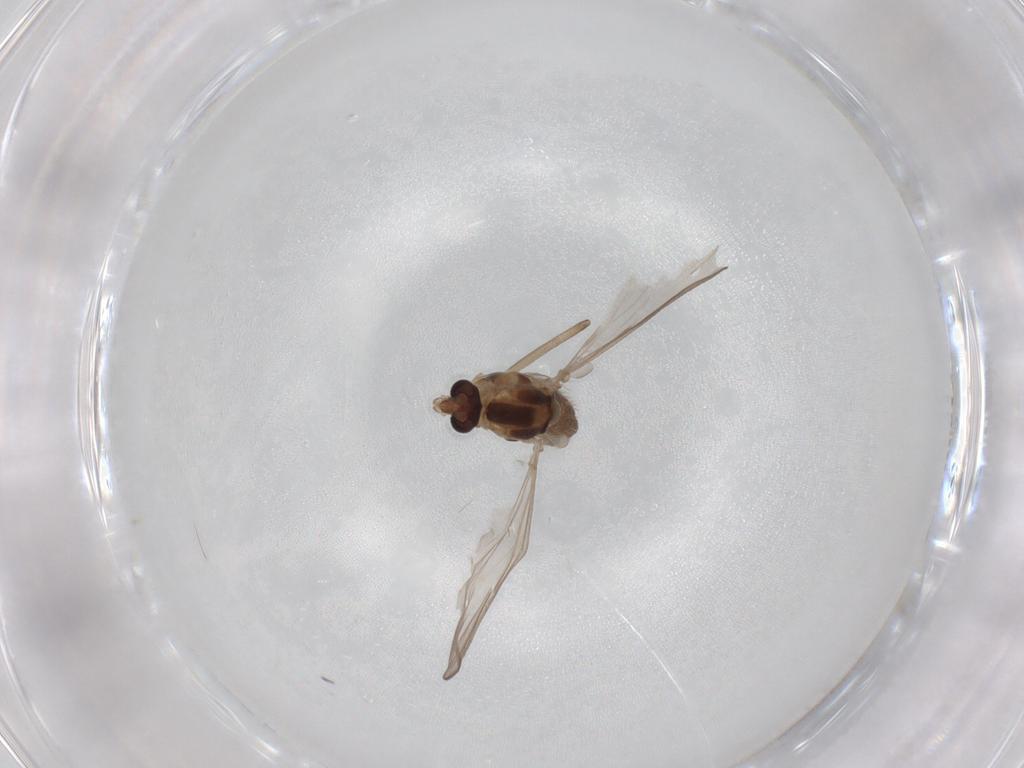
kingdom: Animalia
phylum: Arthropoda
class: Insecta
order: Diptera
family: Chironomidae
